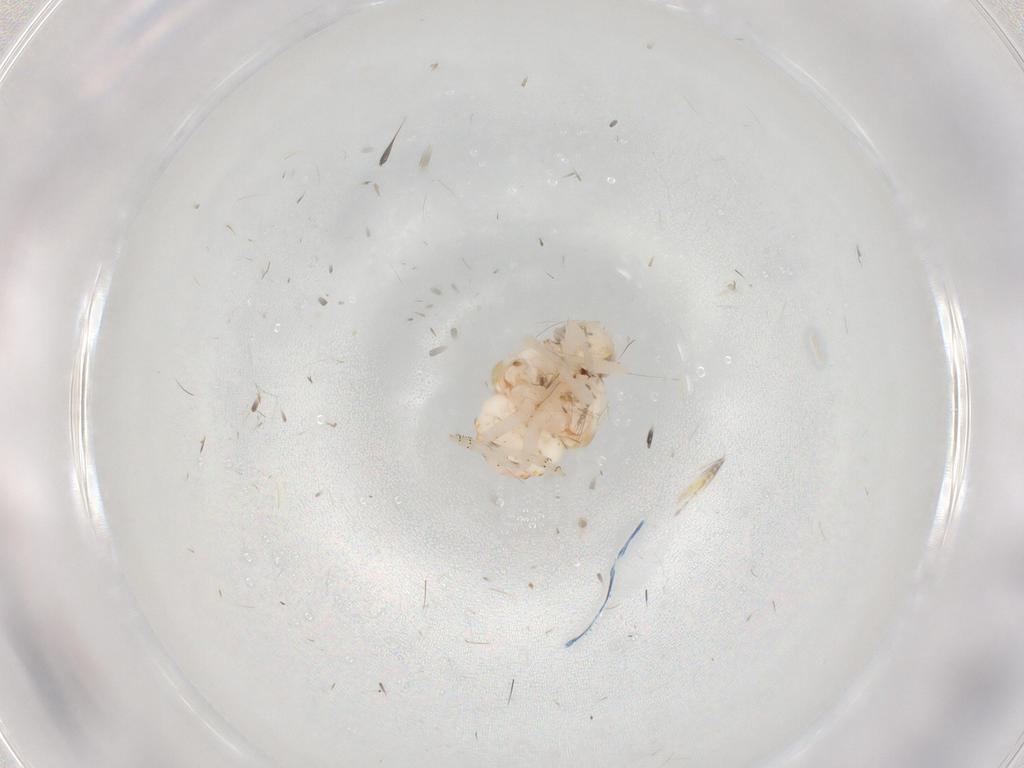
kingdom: Animalia
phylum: Arthropoda
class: Insecta
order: Hemiptera
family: Nogodinidae
